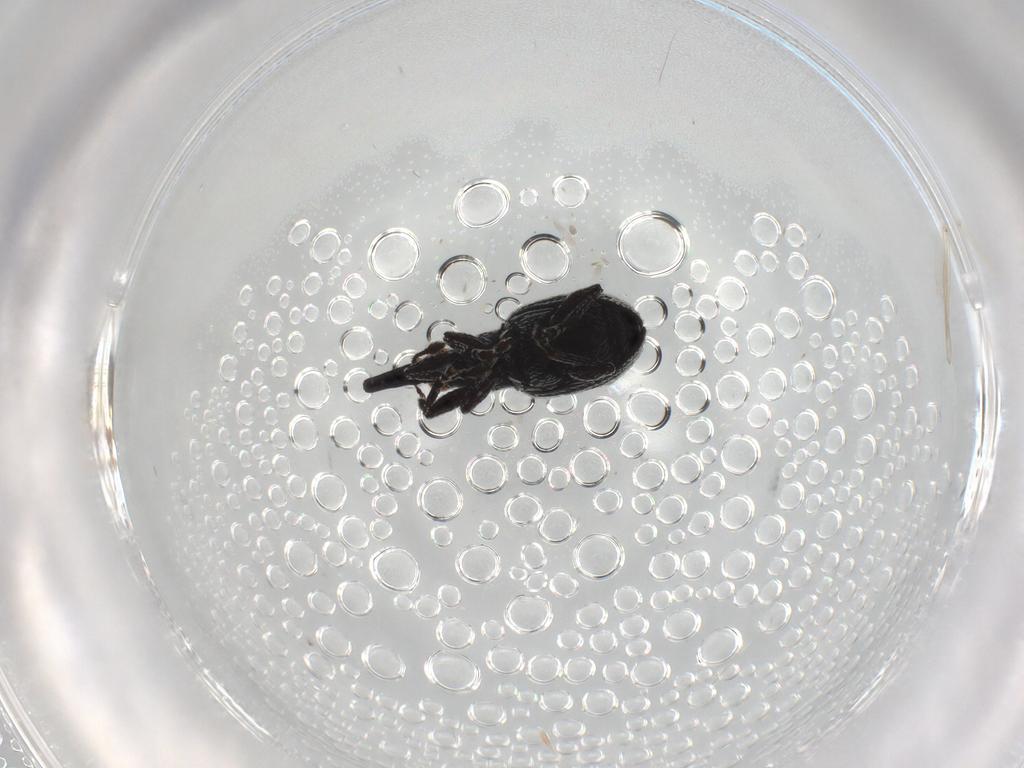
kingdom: Animalia
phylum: Arthropoda
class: Insecta
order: Coleoptera
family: Brentidae
